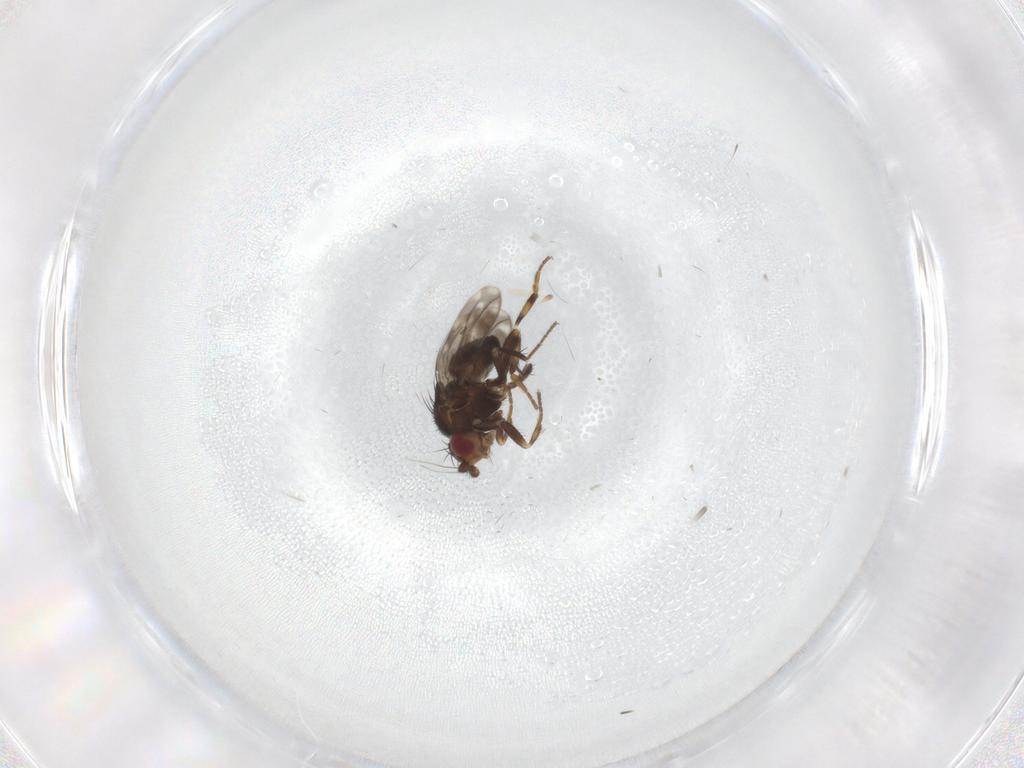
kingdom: Animalia
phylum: Arthropoda
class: Insecta
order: Diptera
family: Sphaeroceridae
